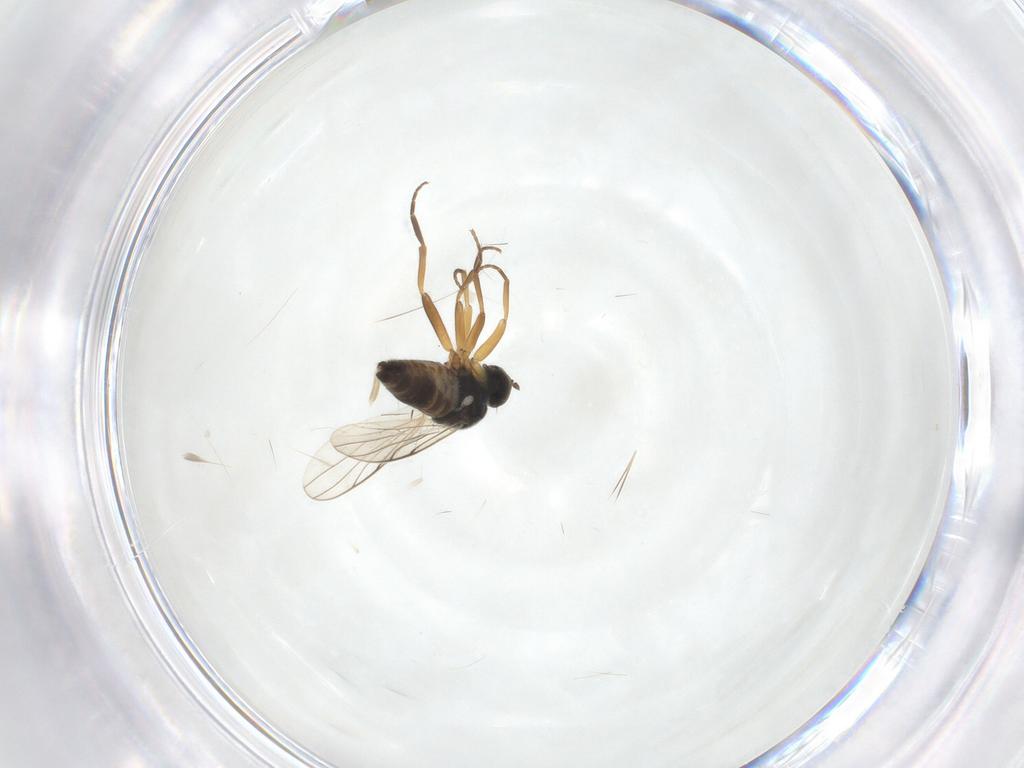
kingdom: Animalia
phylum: Arthropoda
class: Insecta
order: Diptera
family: Hybotidae
